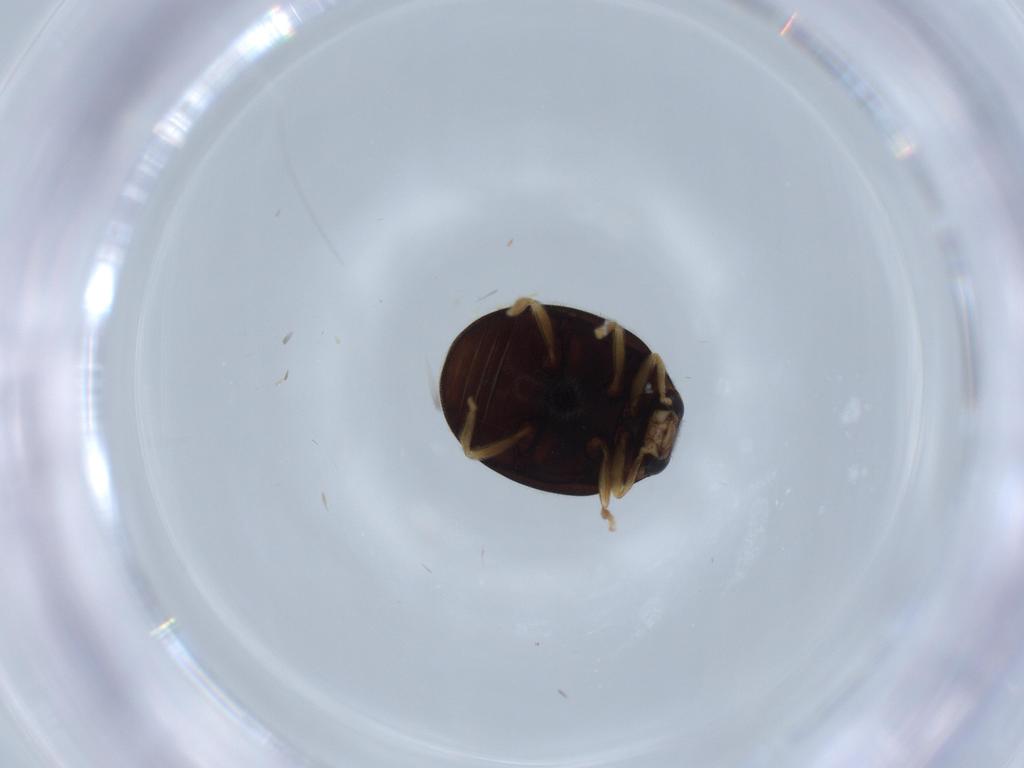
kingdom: Animalia
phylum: Arthropoda
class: Insecta
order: Coleoptera
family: Coccinellidae
